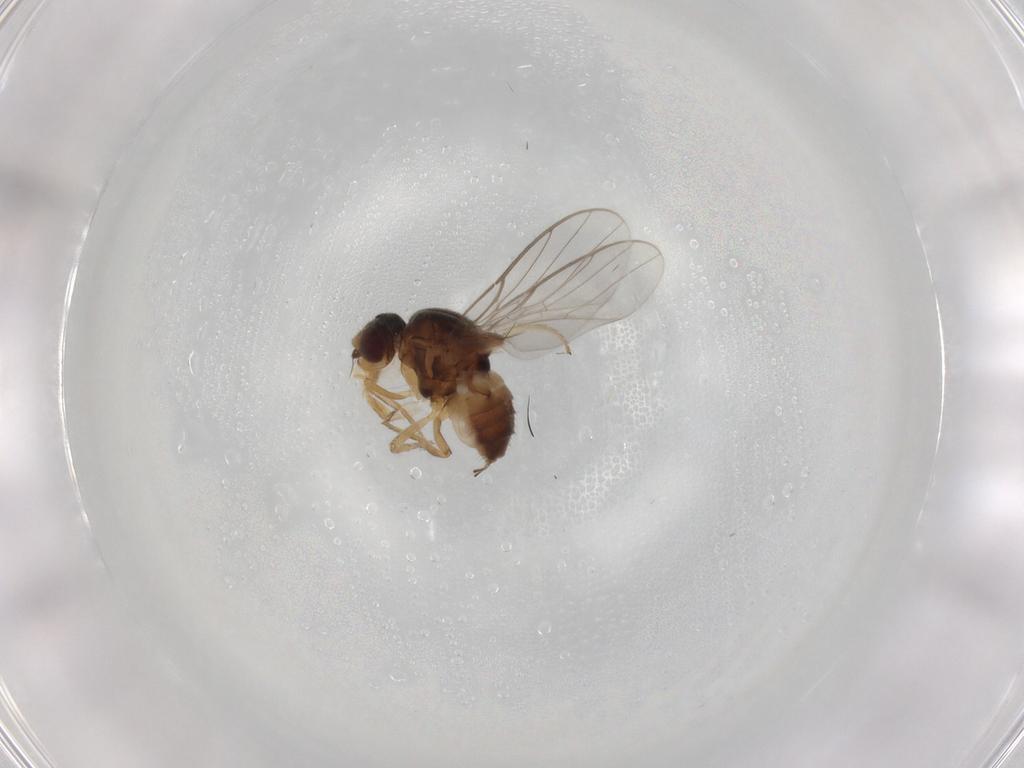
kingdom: Animalia
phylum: Arthropoda
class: Insecta
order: Diptera
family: Chloropidae
